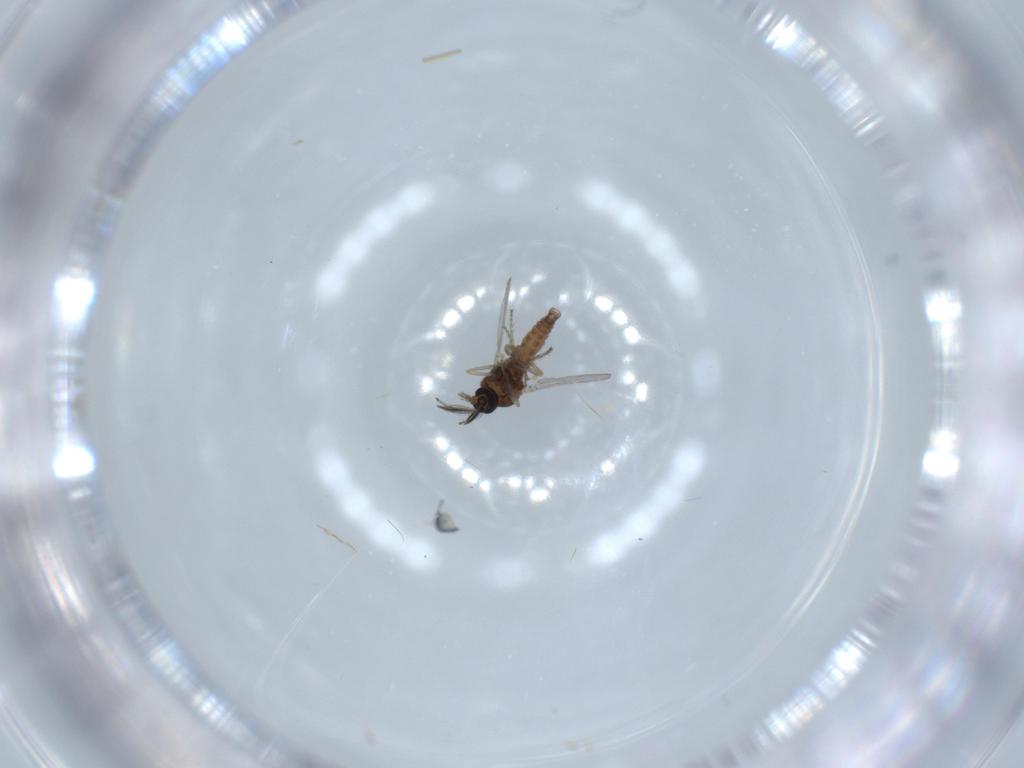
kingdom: Animalia
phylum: Arthropoda
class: Insecta
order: Diptera
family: Ceratopogonidae
